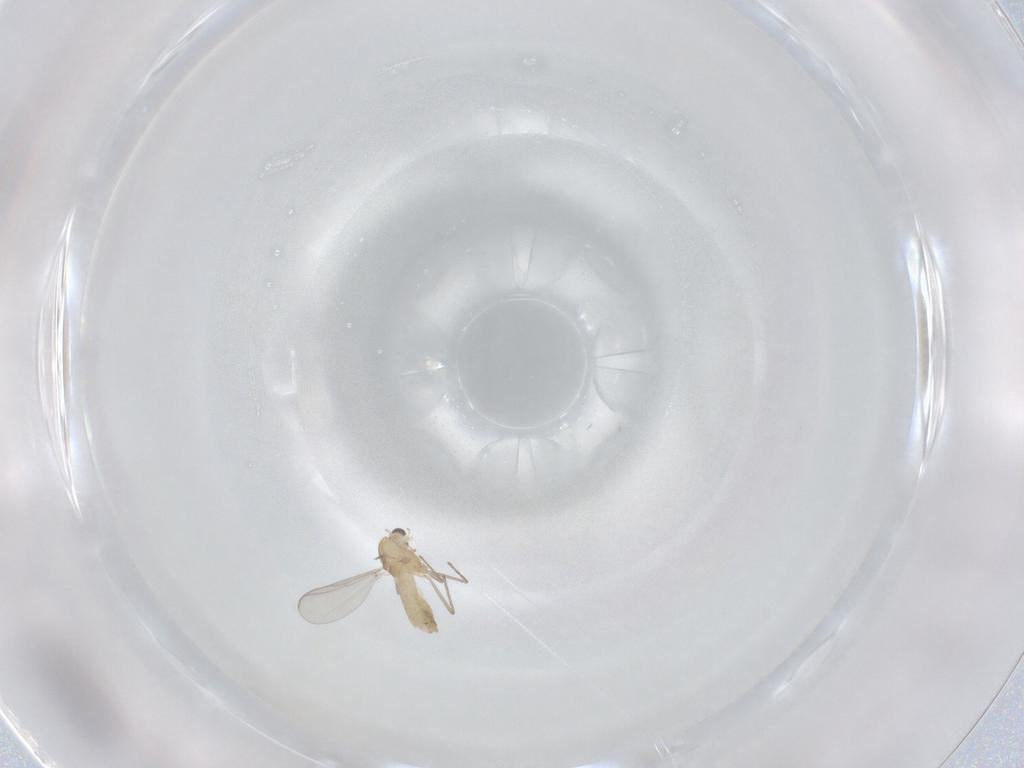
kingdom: Animalia
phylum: Arthropoda
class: Insecta
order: Diptera
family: Chironomidae
